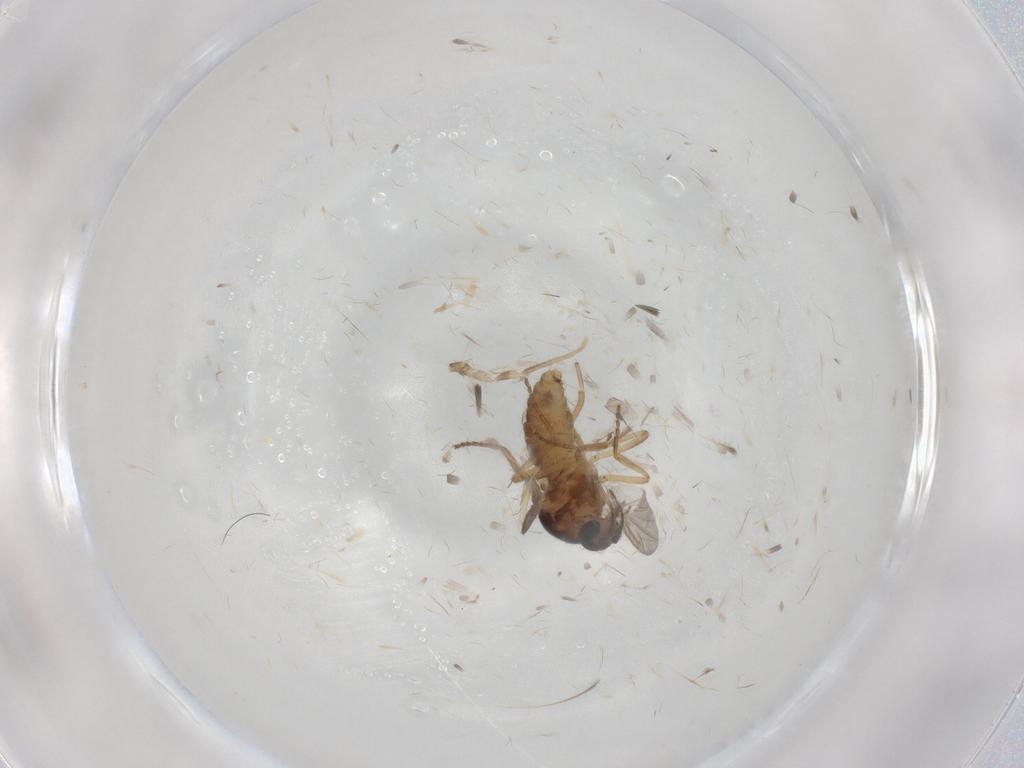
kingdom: Animalia
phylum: Arthropoda
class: Insecta
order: Diptera
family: Ceratopogonidae
